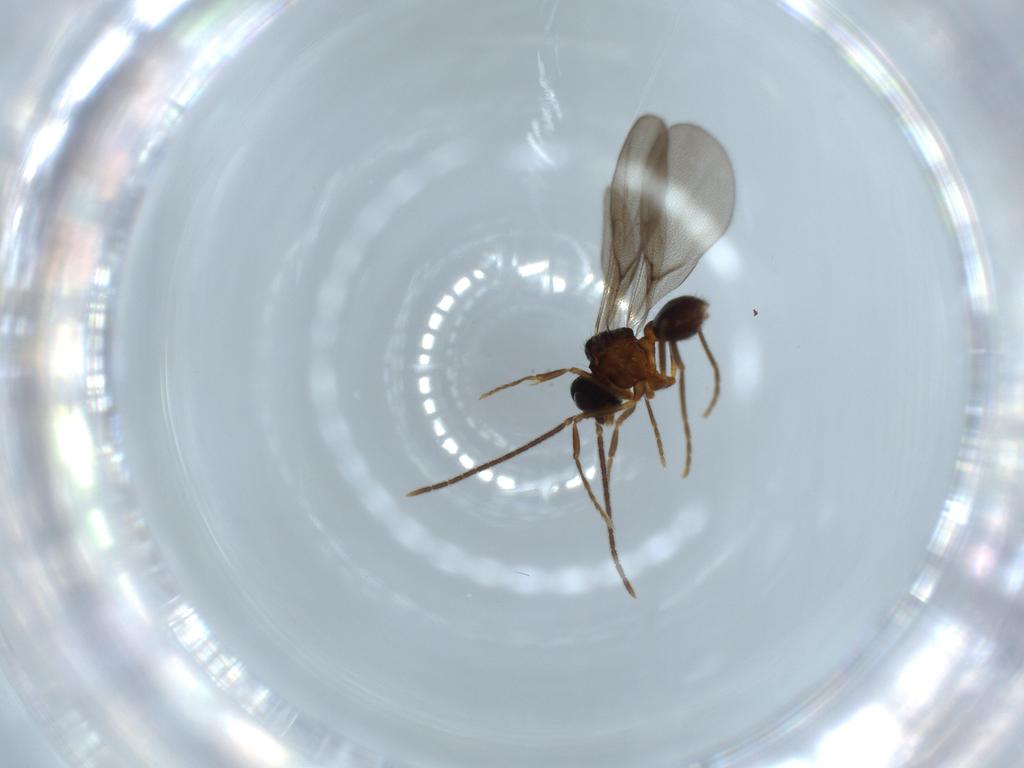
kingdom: Animalia
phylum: Arthropoda
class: Insecta
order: Hymenoptera
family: Formicidae
